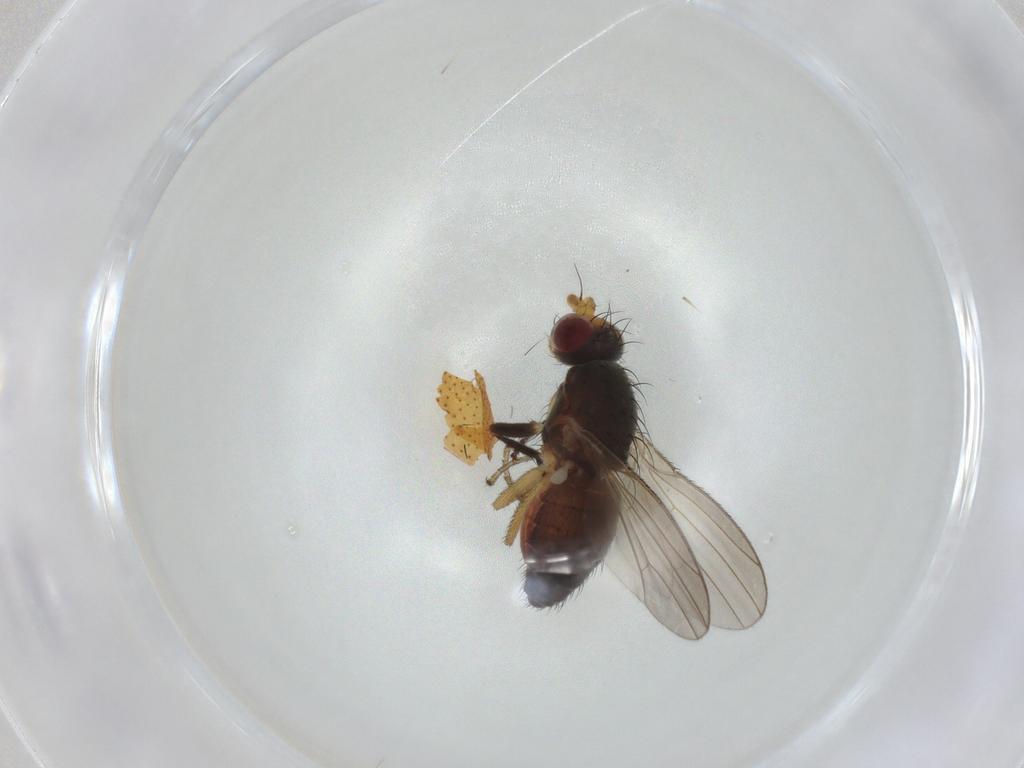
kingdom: Animalia
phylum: Arthropoda
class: Insecta
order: Diptera
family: Heleomyzidae
